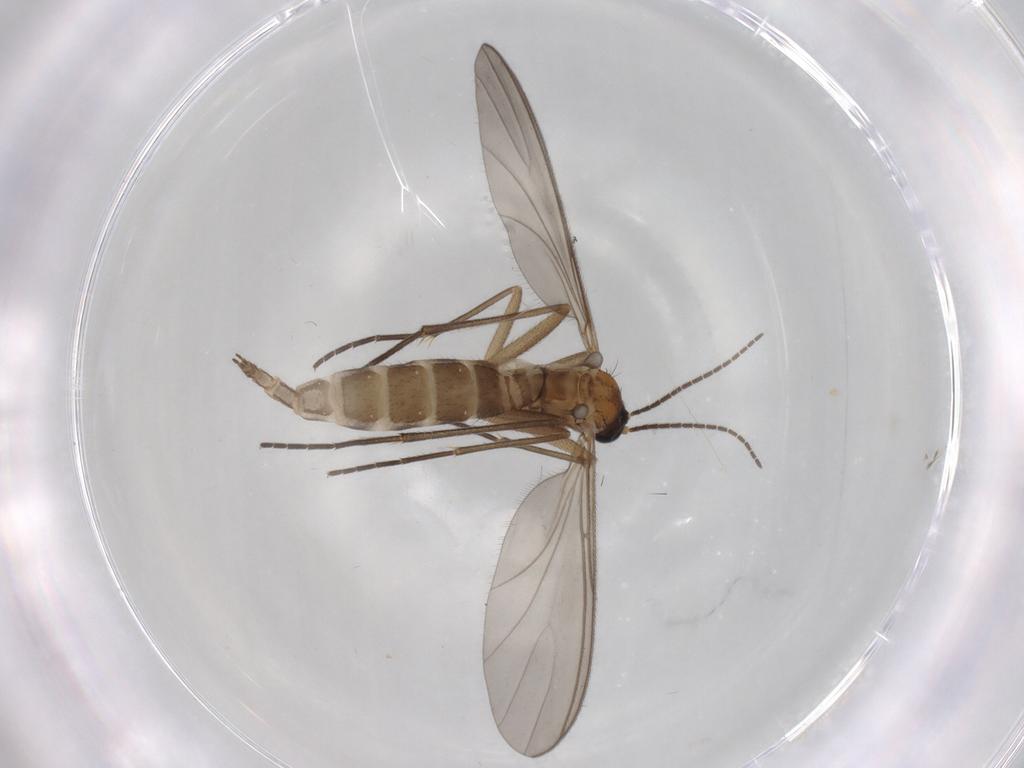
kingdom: Animalia
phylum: Arthropoda
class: Insecta
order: Diptera
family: Sciaridae
